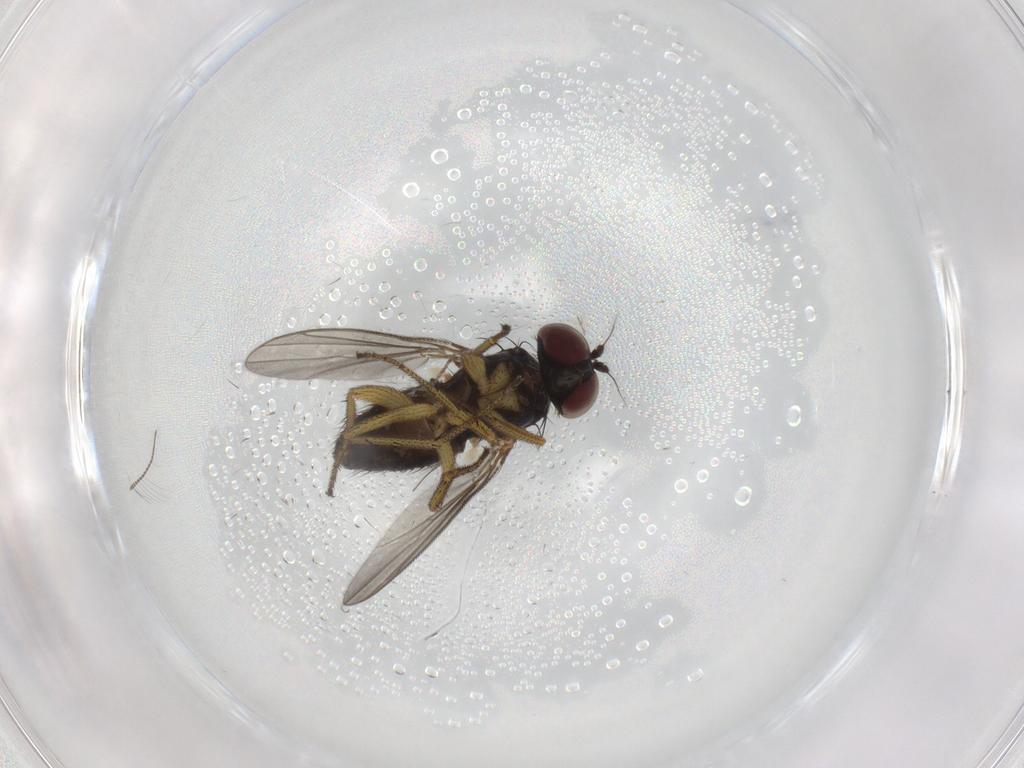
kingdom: Animalia
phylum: Arthropoda
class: Insecta
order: Diptera
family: Dolichopodidae
